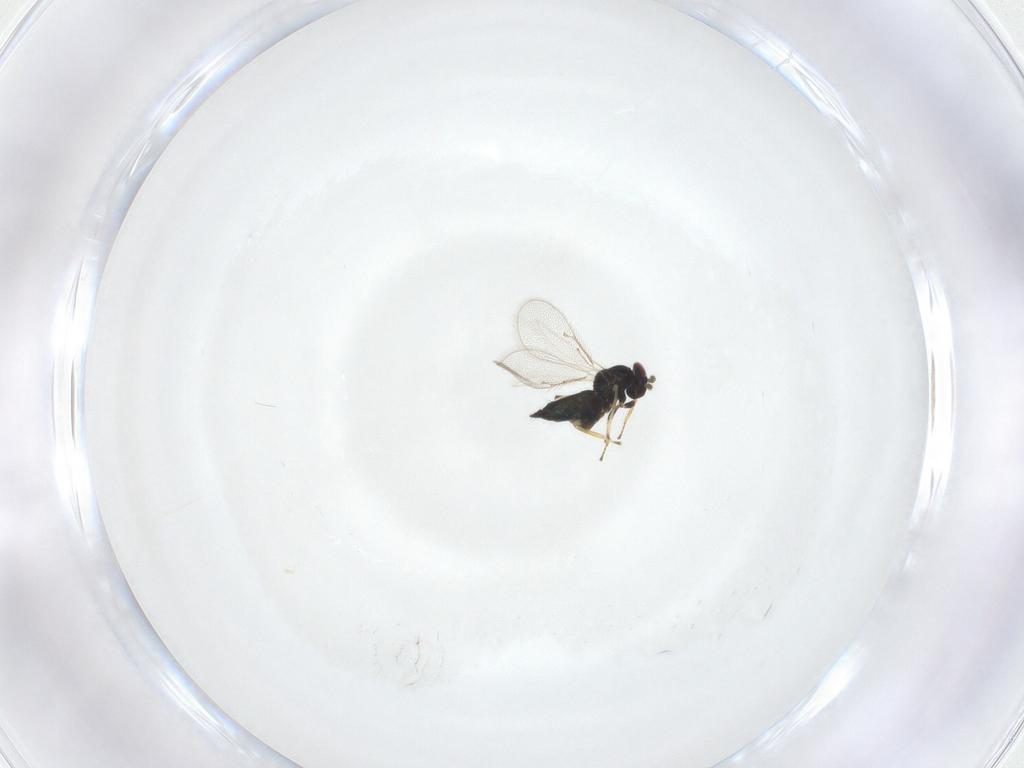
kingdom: Animalia
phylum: Arthropoda
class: Insecta
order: Hymenoptera
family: Eulophidae
